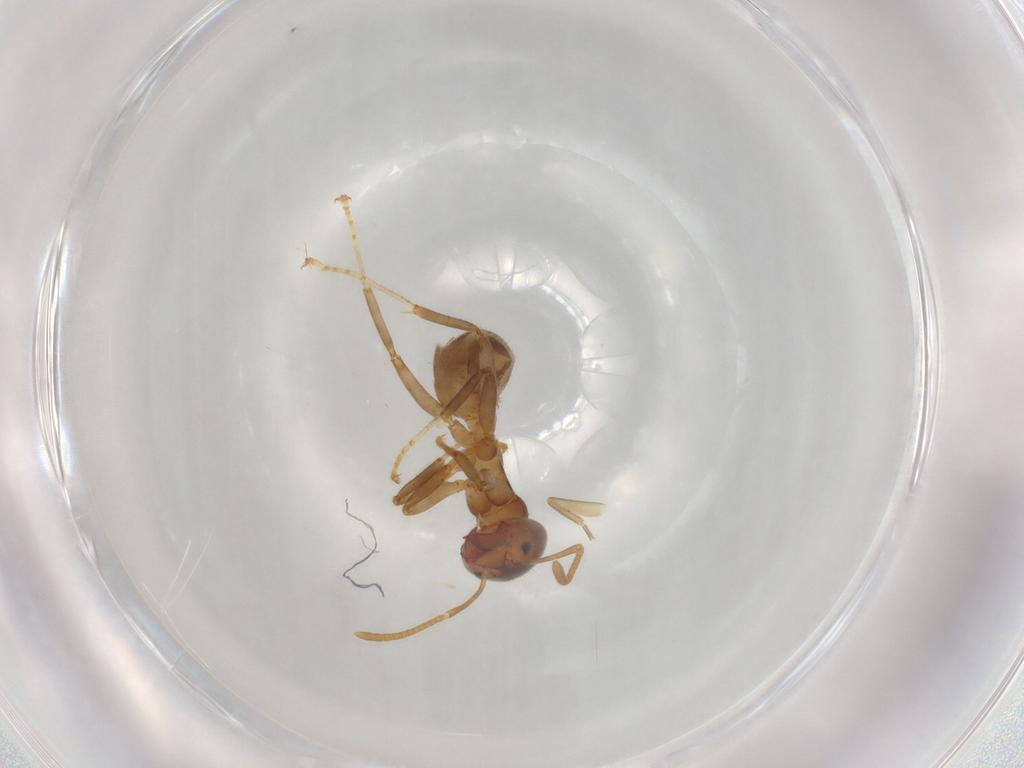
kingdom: Animalia
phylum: Arthropoda
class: Insecta
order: Hymenoptera
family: Formicidae
